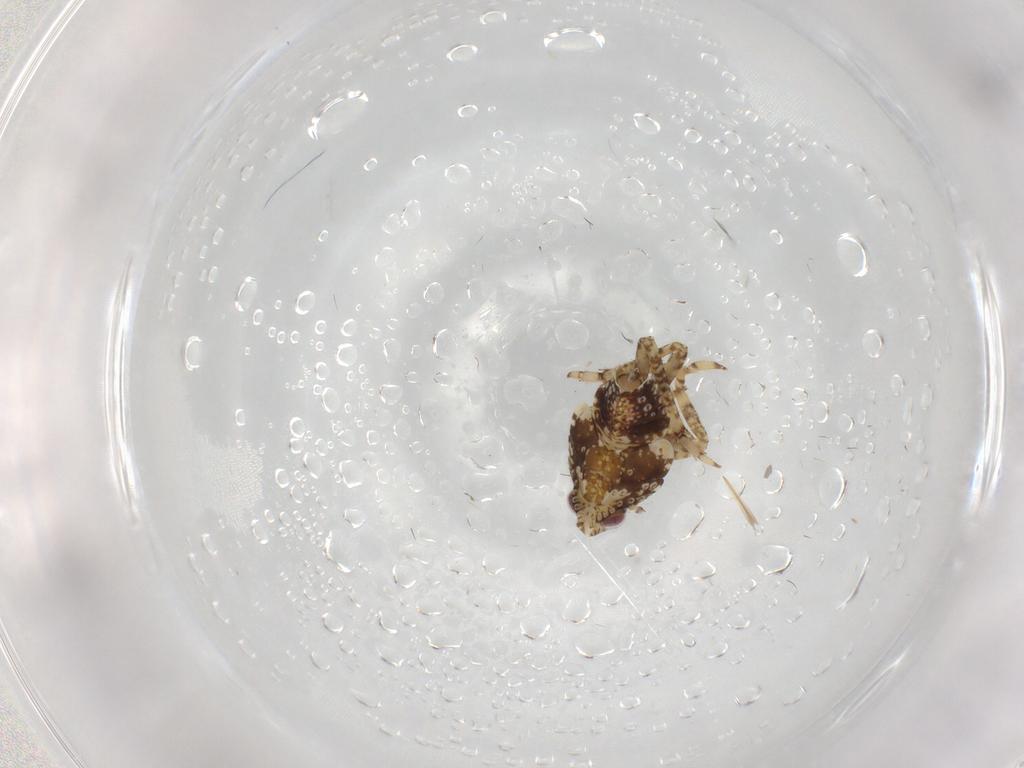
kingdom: Animalia
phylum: Arthropoda
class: Insecta
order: Hemiptera
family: Issidae
